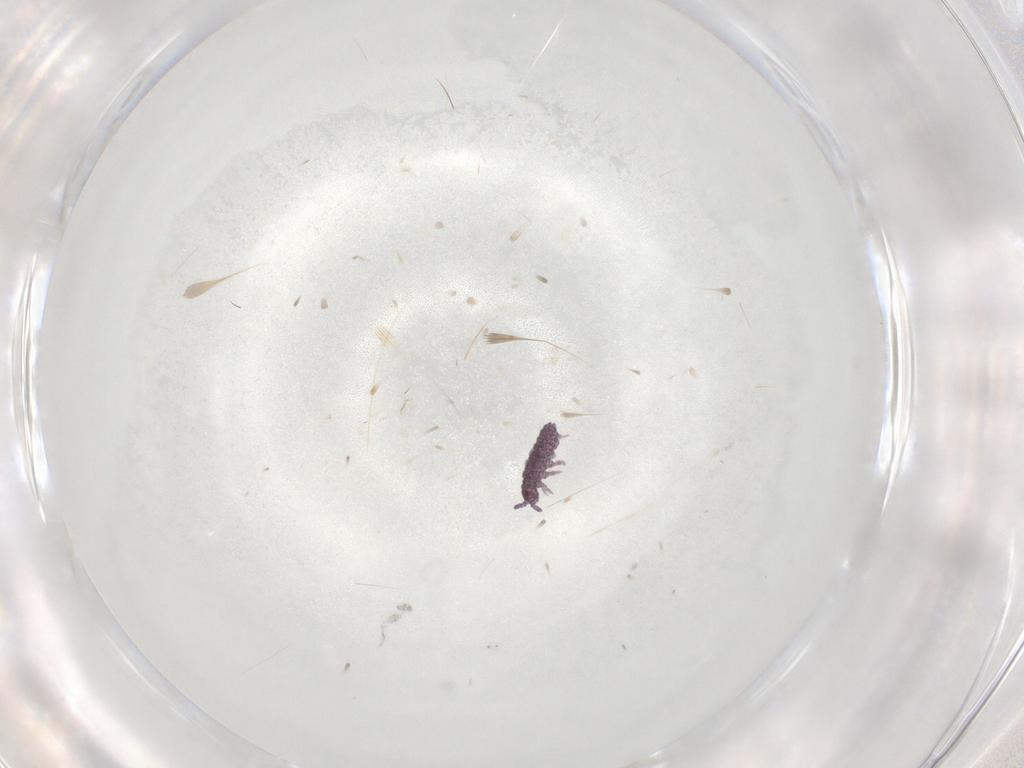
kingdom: Animalia
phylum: Arthropoda
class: Collembola
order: Poduromorpha
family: Brachystomellidae
